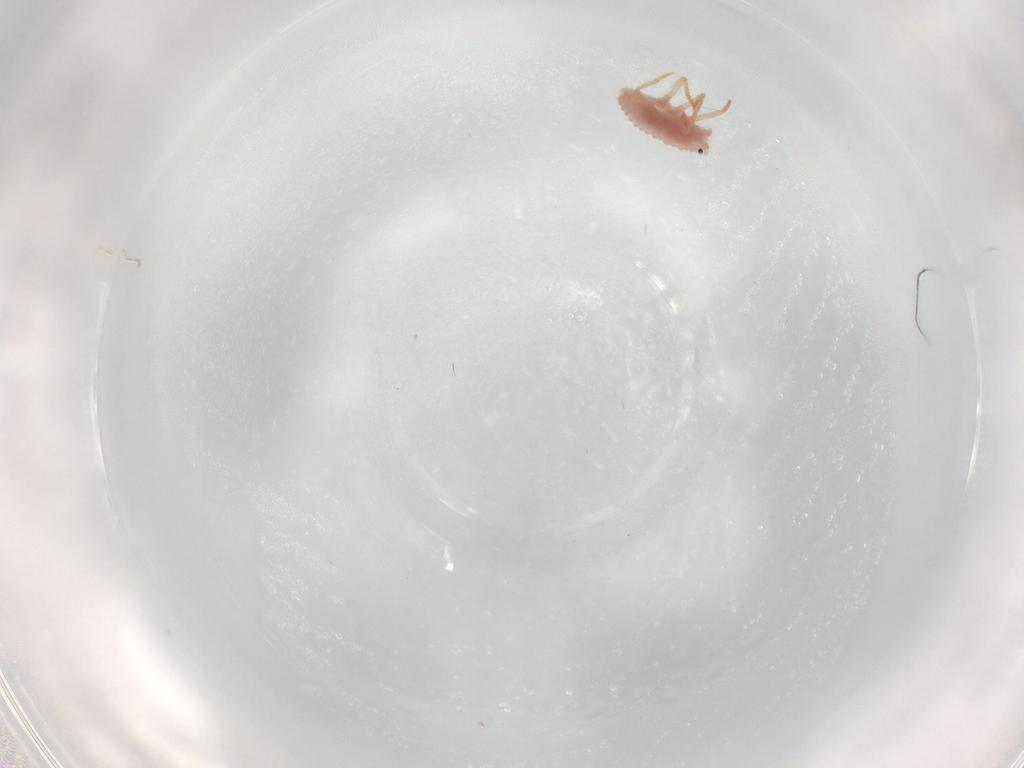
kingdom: Animalia
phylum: Arthropoda
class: Insecta
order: Hemiptera
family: Coccoidea_incertae_sedis
